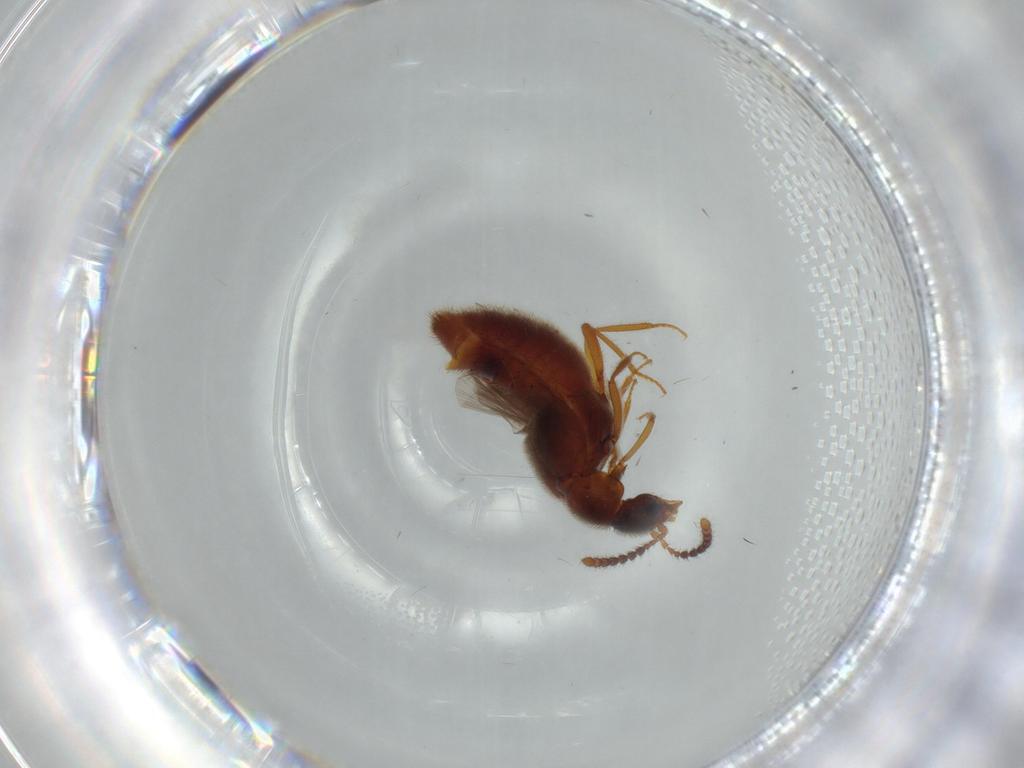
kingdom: Animalia
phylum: Arthropoda
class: Insecta
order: Coleoptera
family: Staphylinidae
